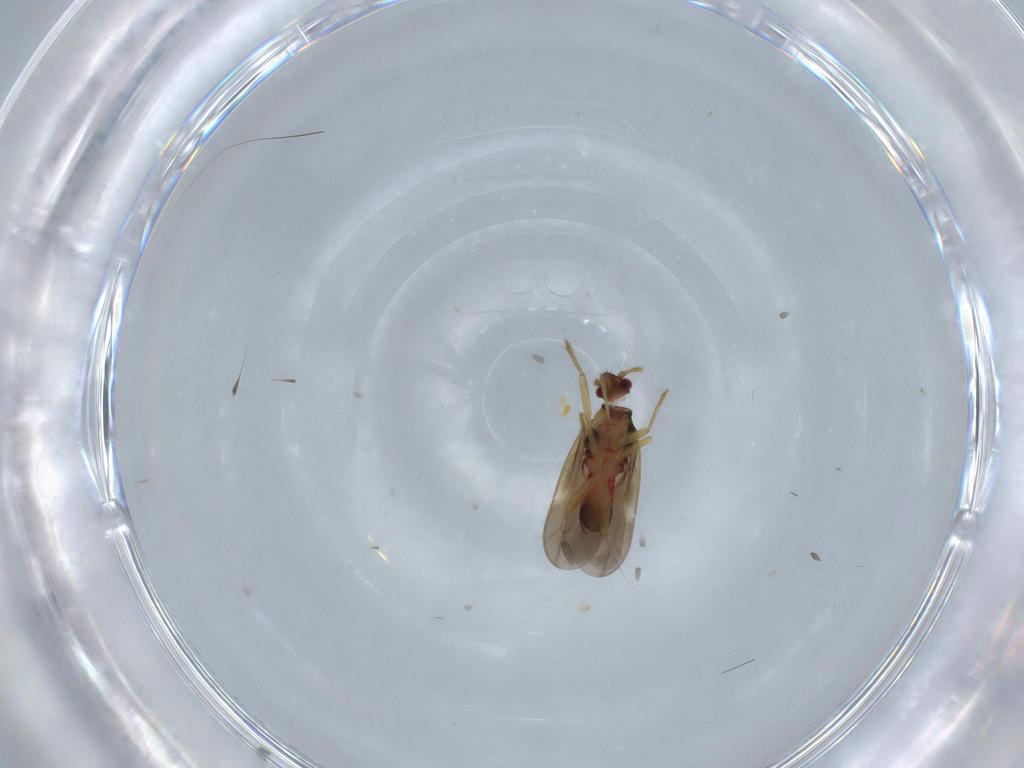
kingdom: Animalia
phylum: Arthropoda
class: Insecta
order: Hemiptera
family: Ceratocombidae
